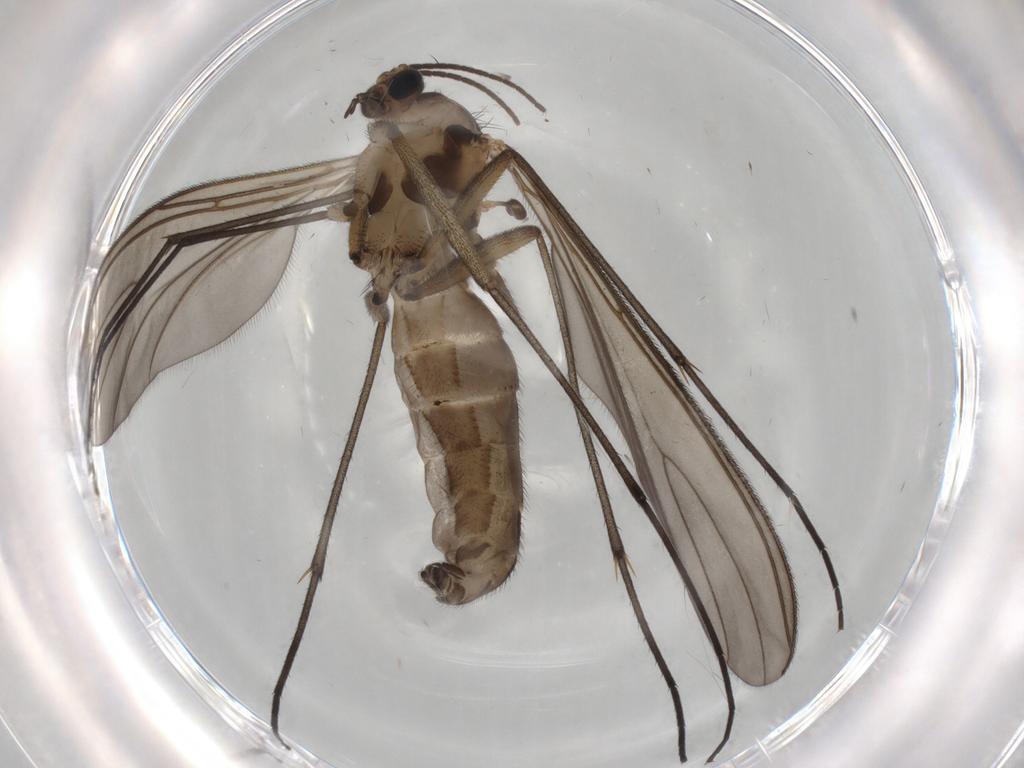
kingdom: Animalia
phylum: Arthropoda
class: Insecta
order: Diptera
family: Sciaridae
